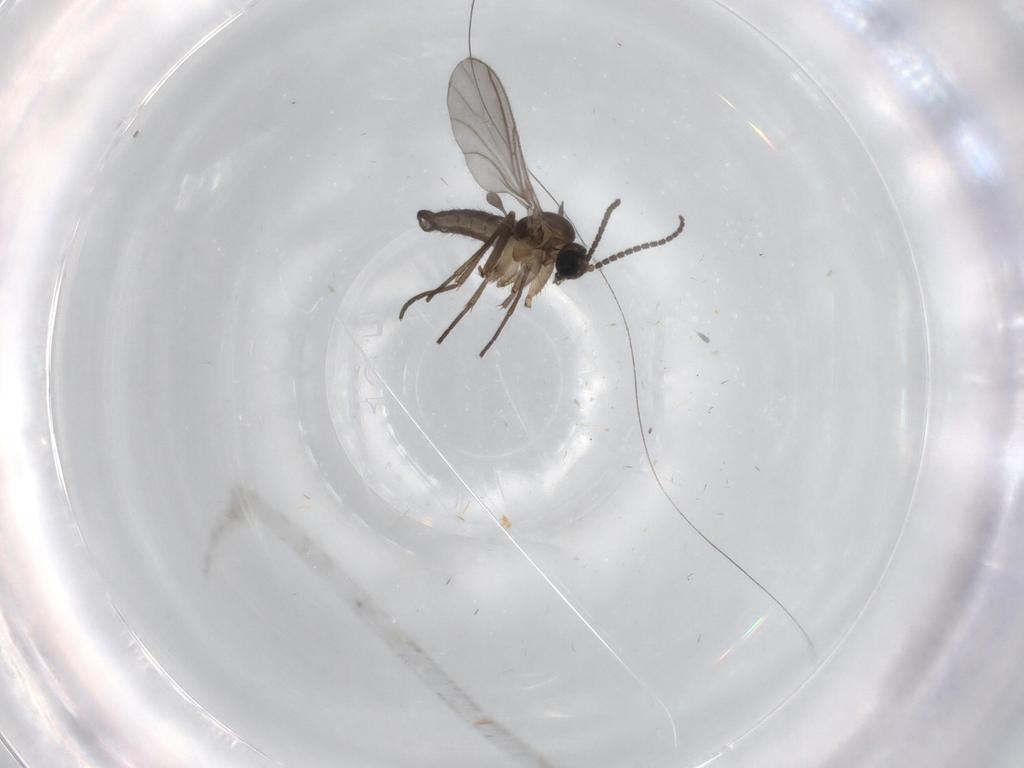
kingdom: Animalia
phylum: Arthropoda
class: Insecta
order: Diptera
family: Sciaridae
